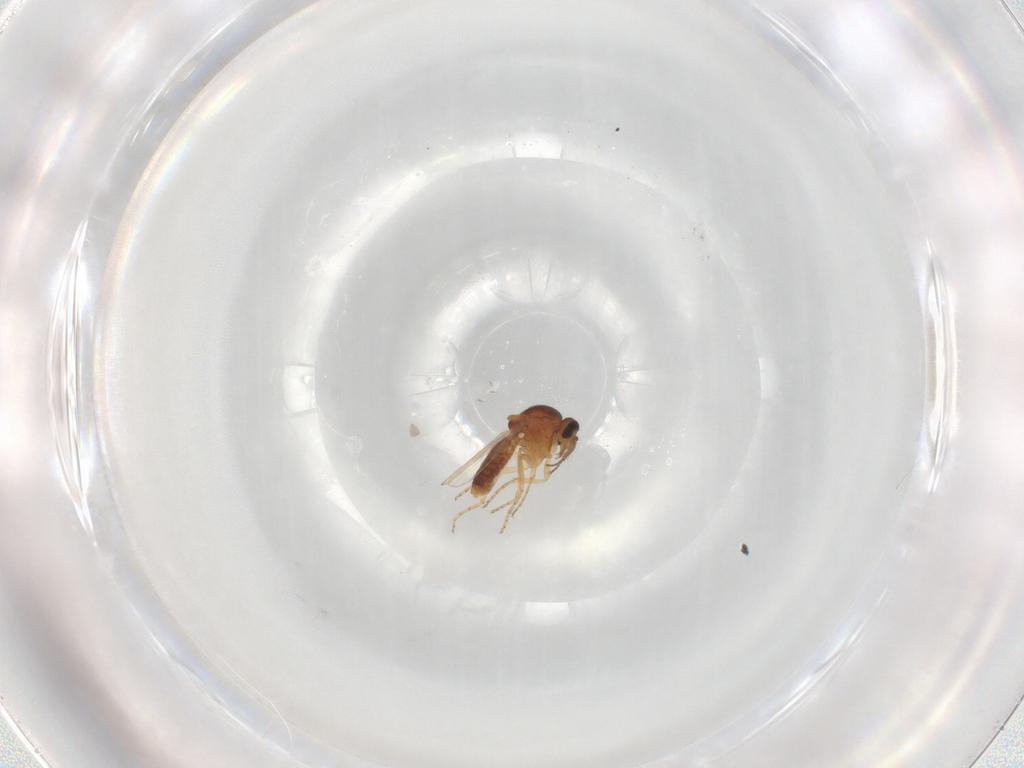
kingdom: Animalia
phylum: Arthropoda
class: Insecta
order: Diptera
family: Ceratopogonidae
